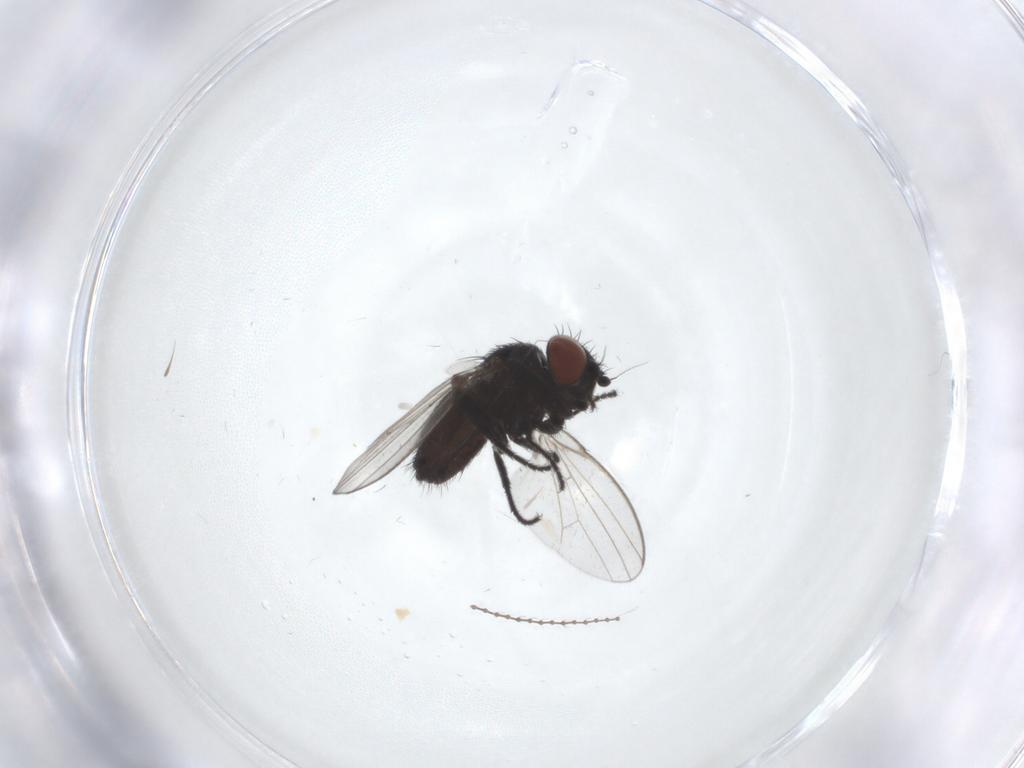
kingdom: Animalia
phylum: Arthropoda
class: Insecta
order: Diptera
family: Milichiidae
